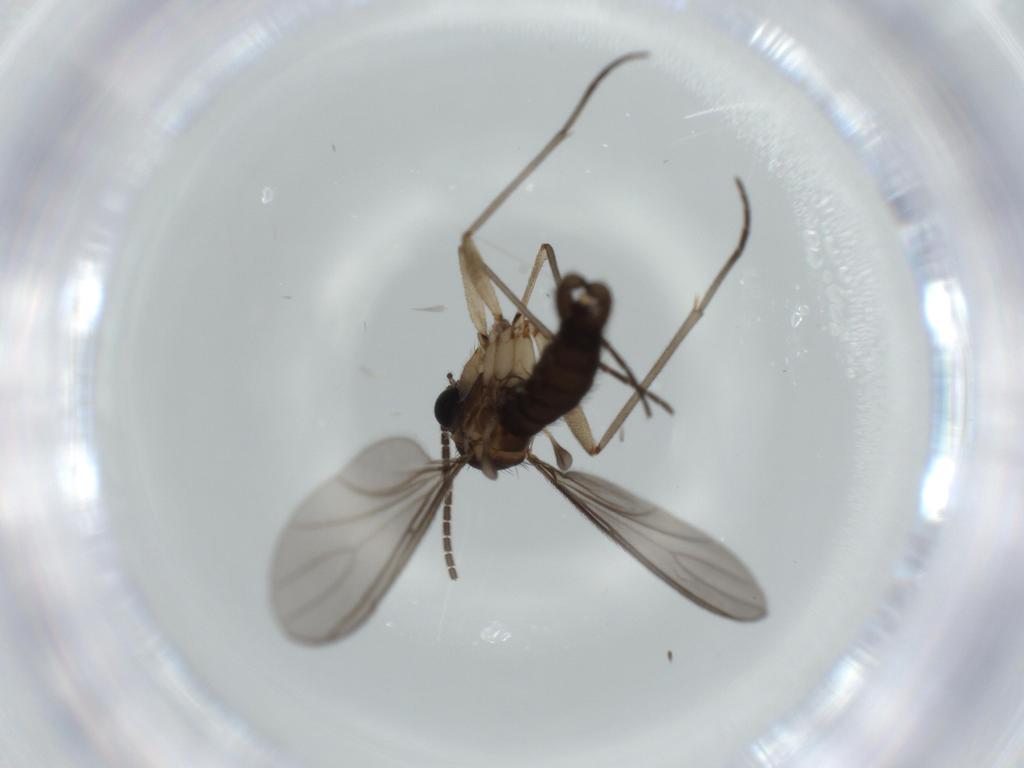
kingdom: Animalia
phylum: Arthropoda
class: Insecta
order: Diptera
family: Sciaridae
